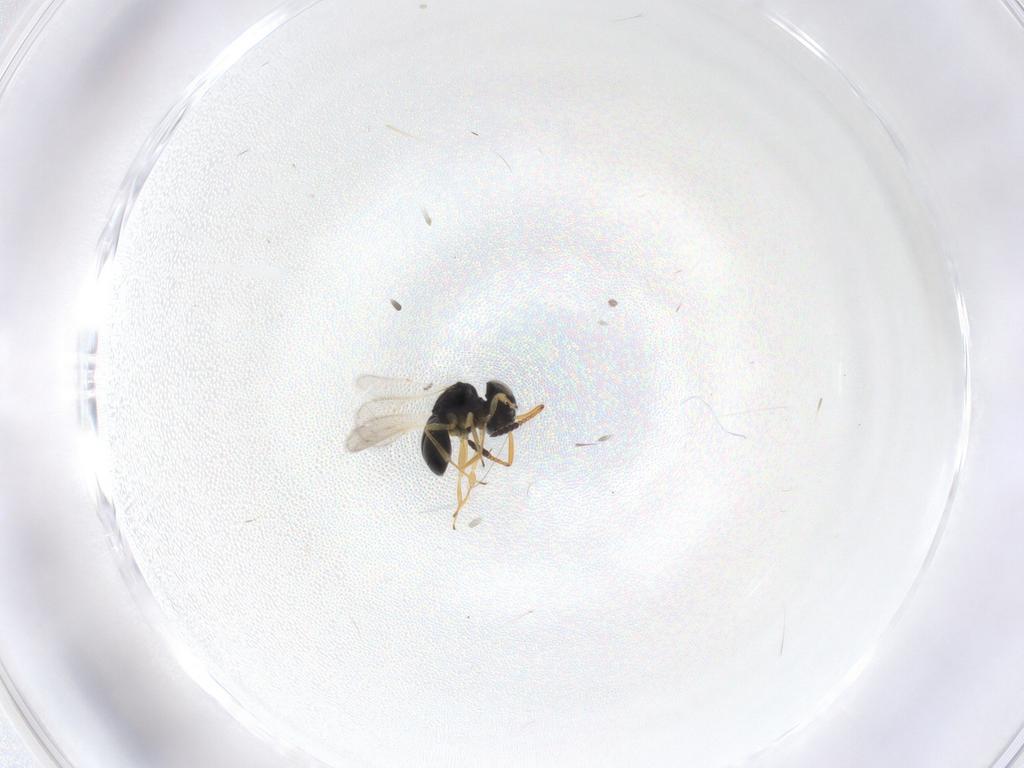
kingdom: Animalia
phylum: Arthropoda
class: Insecta
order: Hymenoptera
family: Scelionidae
